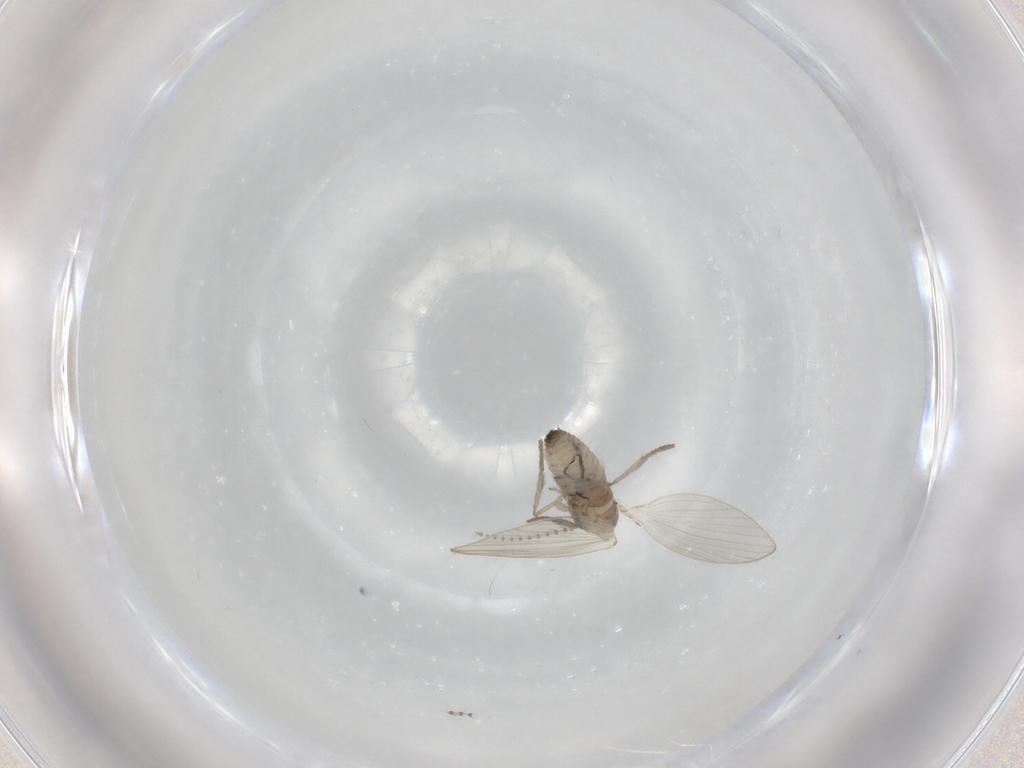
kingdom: Animalia
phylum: Arthropoda
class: Insecta
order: Diptera
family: Psychodidae
